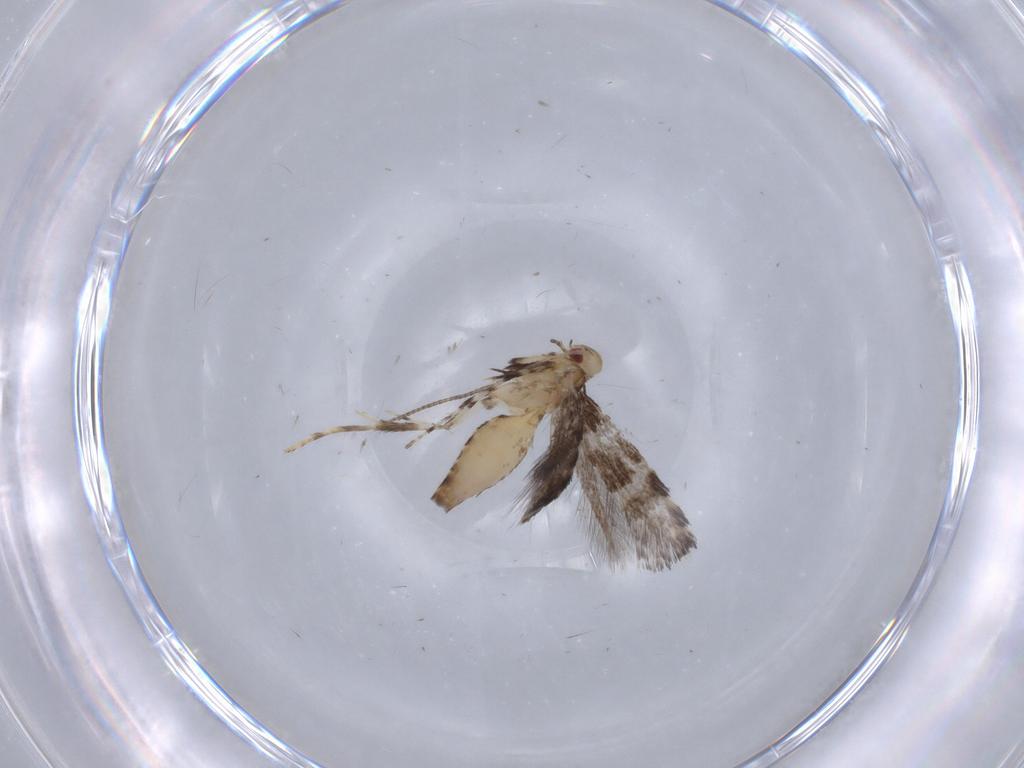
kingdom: Animalia
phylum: Arthropoda
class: Insecta
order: Lepidoptera
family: Gracillariidae
